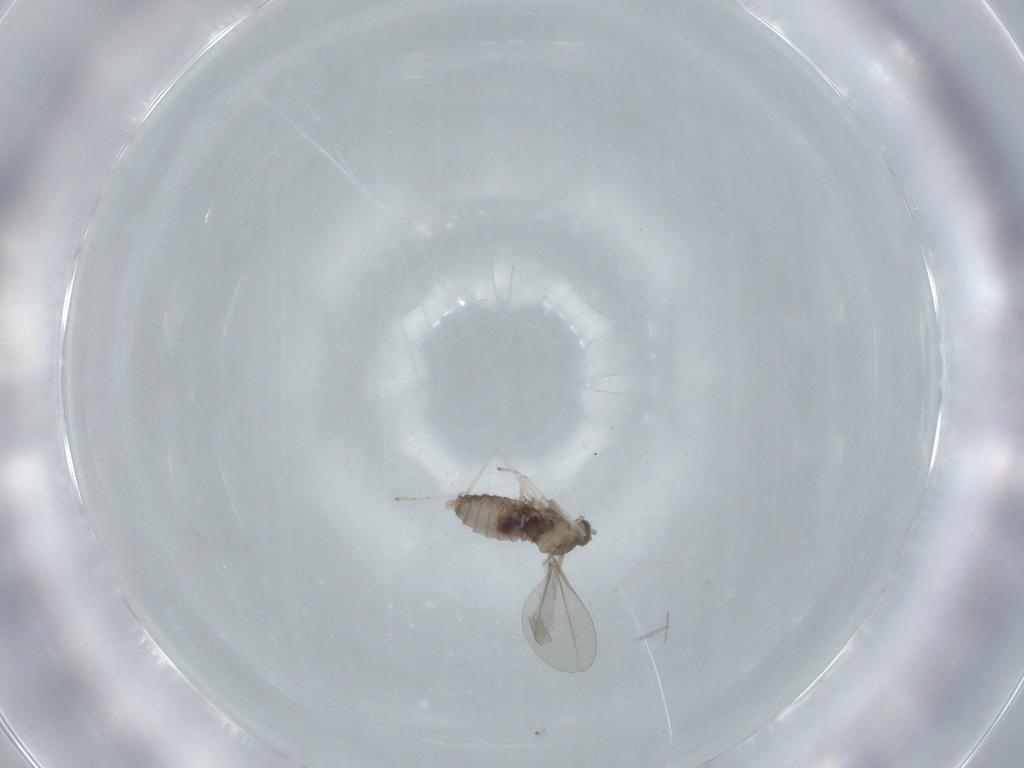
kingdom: Animalia
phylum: Arthropoda
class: Insecta
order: Diptera
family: Cecidomyiidae
